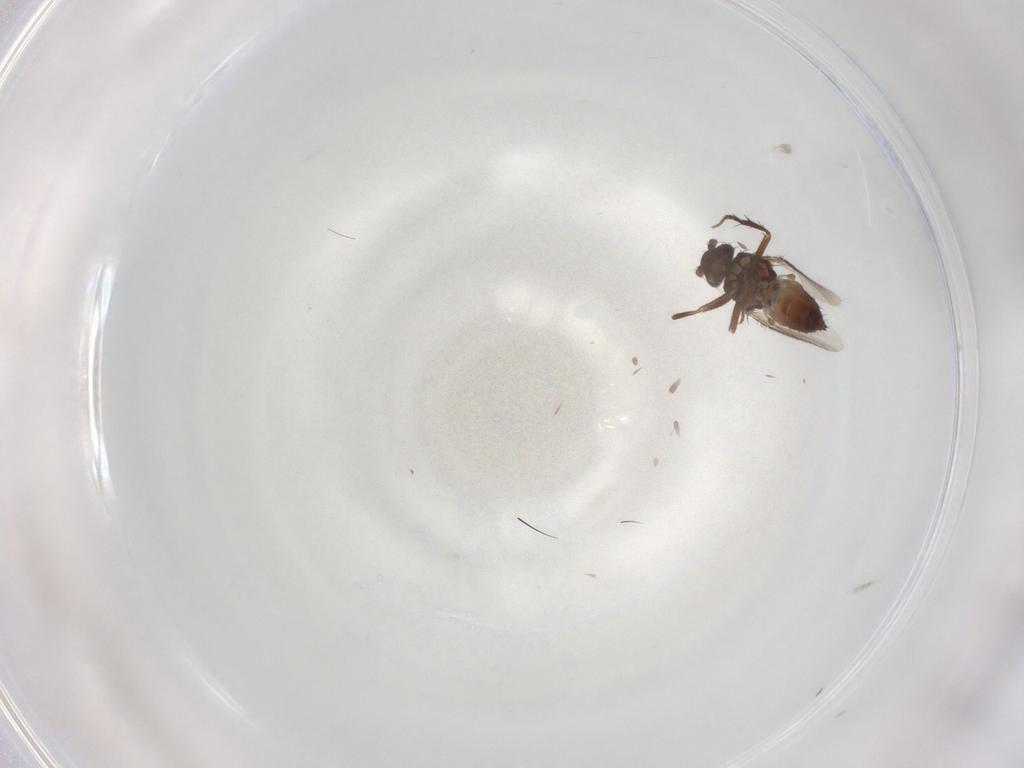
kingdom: Animalia
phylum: Arthropoda
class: Insecta
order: Diptera
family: Sphaeroceridae
